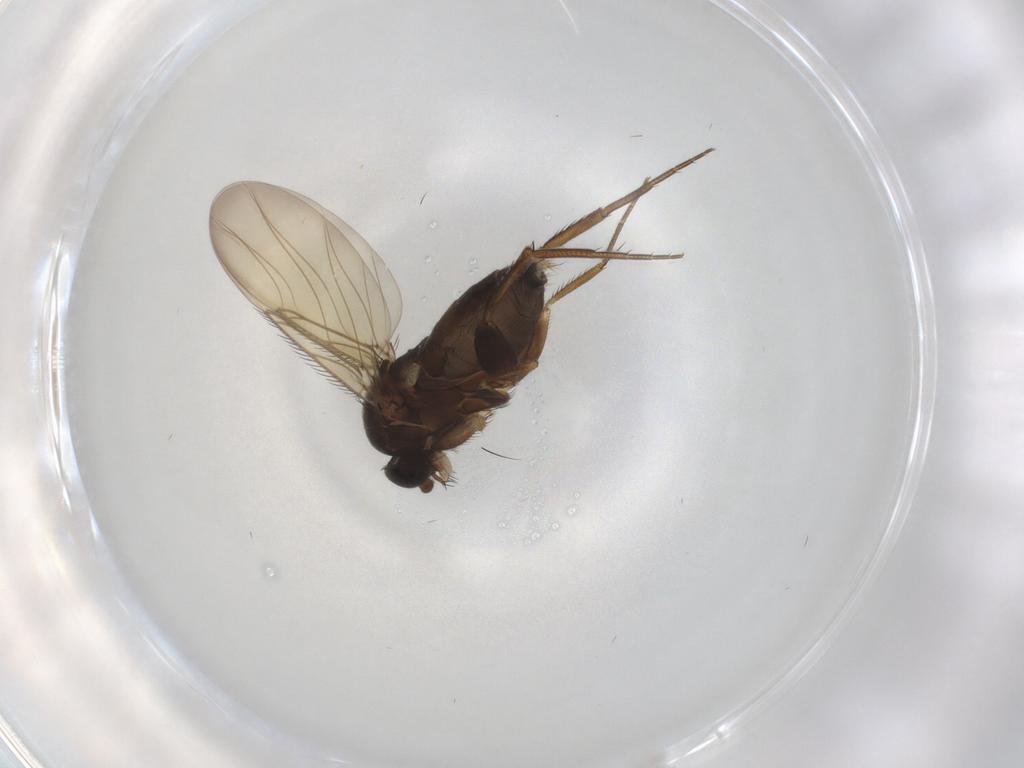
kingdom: Animalia
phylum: Arthropoda
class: Insecta
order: Diptera
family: Phoridae
